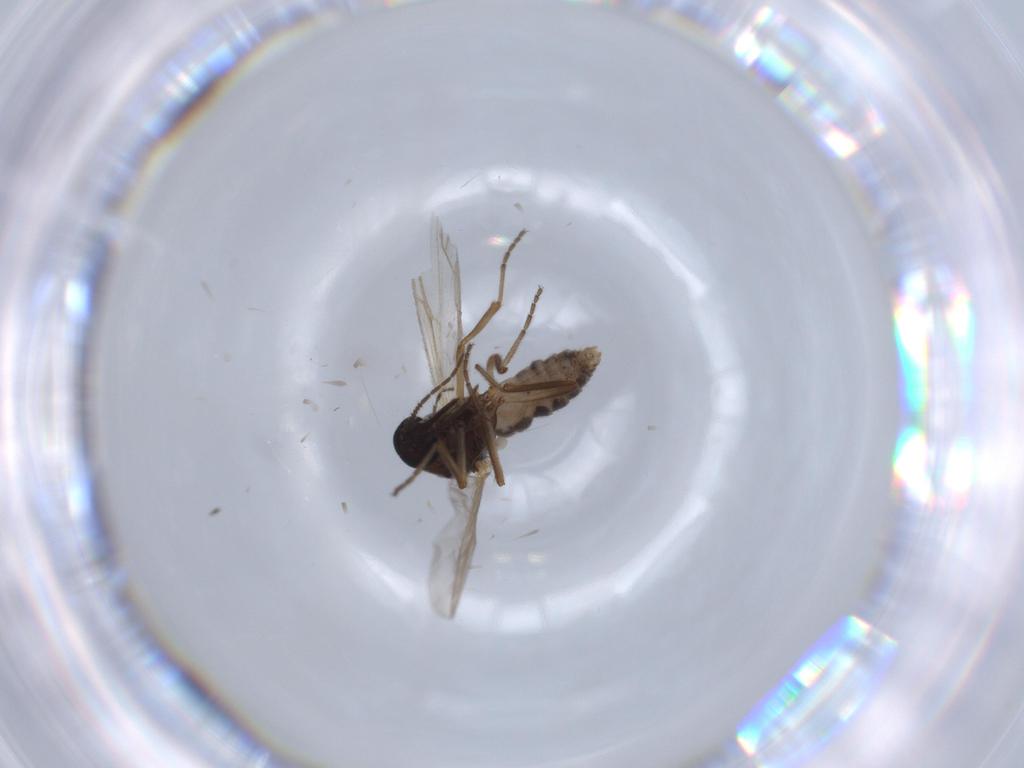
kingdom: Animalia
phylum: Arthropoda
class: Insecta
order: Diptera
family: Ceratopogonidae
